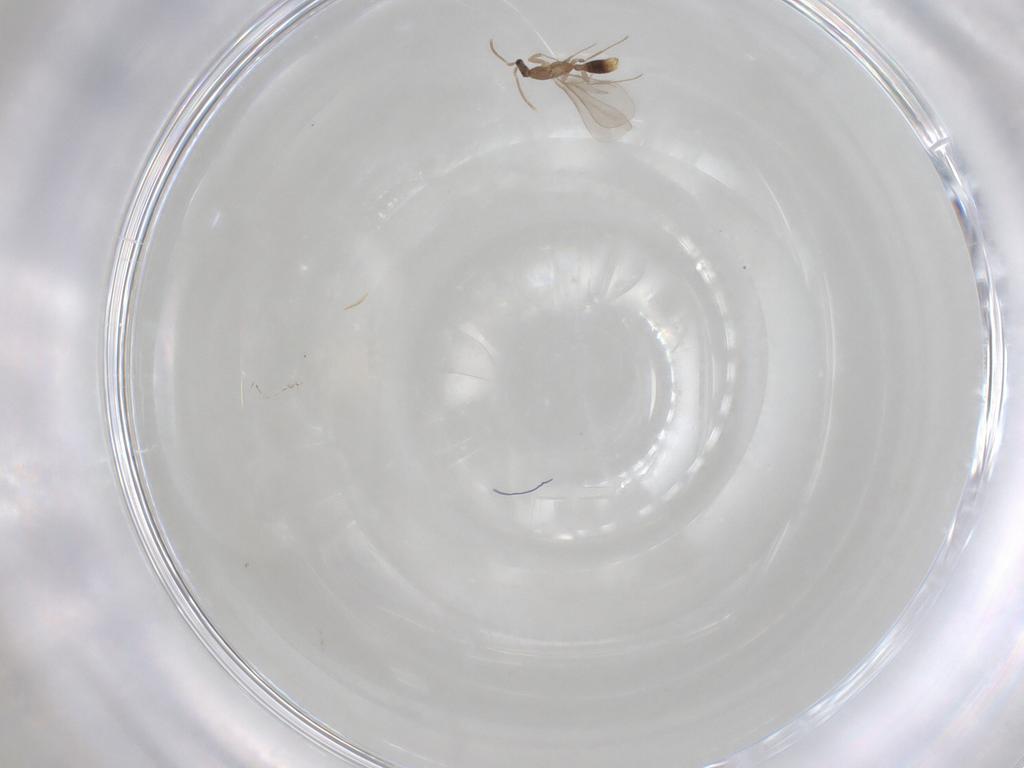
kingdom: Animalia
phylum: Arthropoda
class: Insecta
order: Hymenoptera
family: Formicidae
